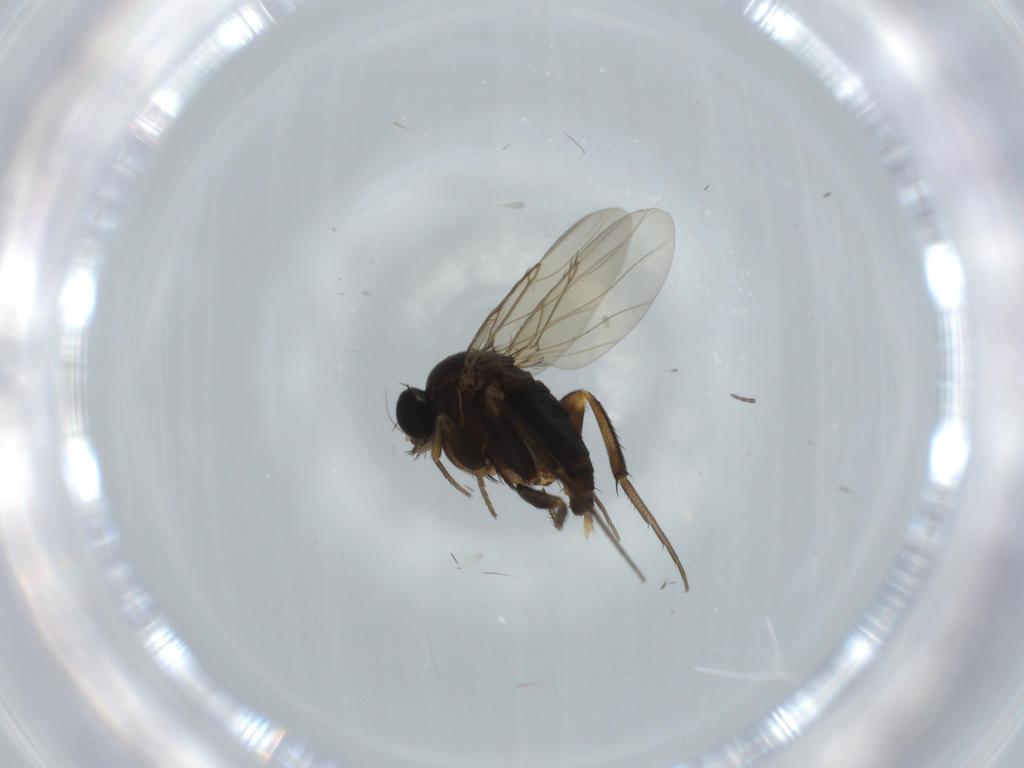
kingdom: Animalia
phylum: Arthropoda
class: Insecta
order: Diptera
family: Phoridae
